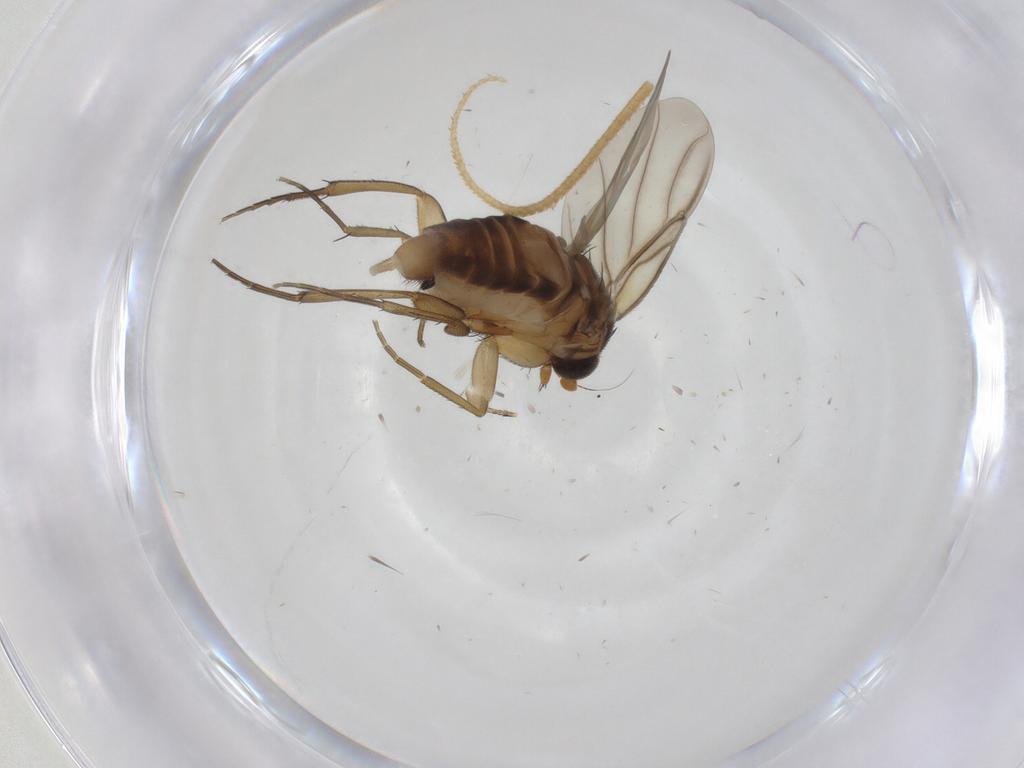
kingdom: Animalia
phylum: Arthropoda
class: Insecta
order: Diptera
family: Phoridae
